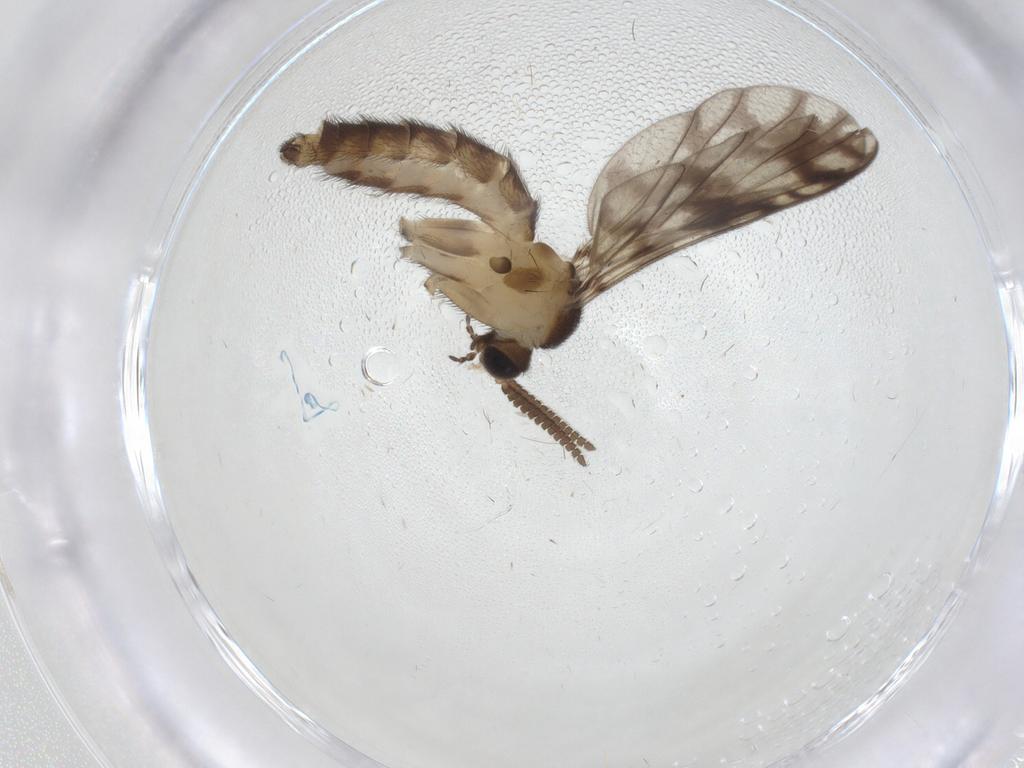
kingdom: Animalia
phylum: Arthropoda
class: Insecta
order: Diptera
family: Keroplatidae
